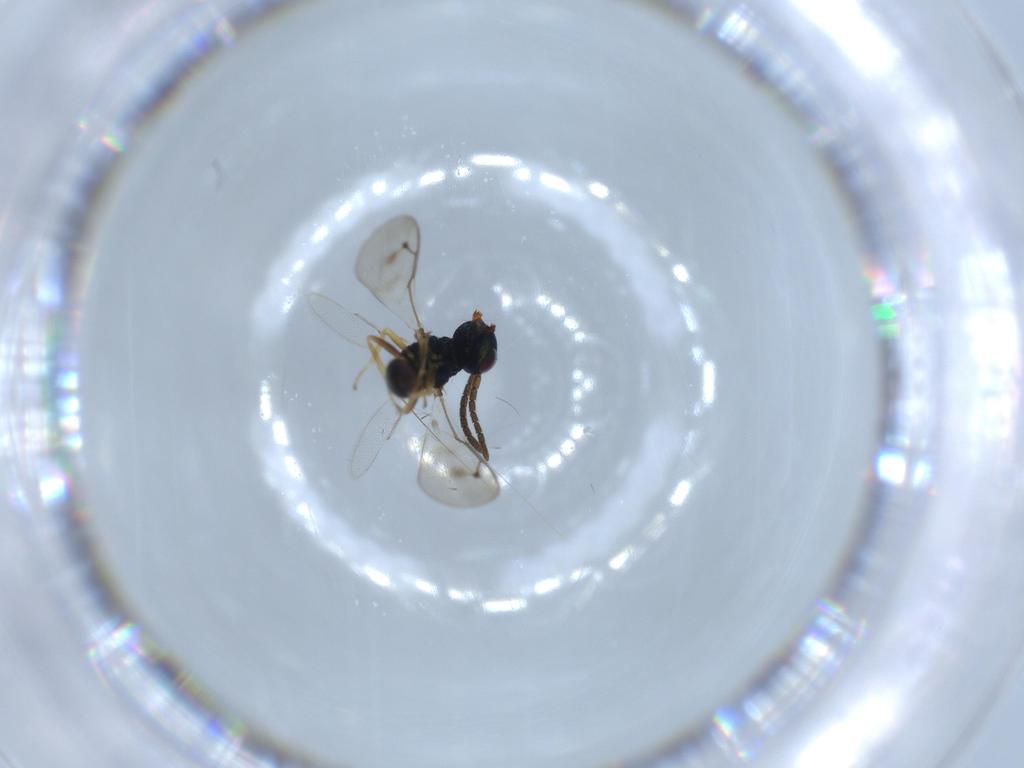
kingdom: Animalia
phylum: Arthropoda
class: Insecta
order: Hymenoptera
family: Pteromalidae
